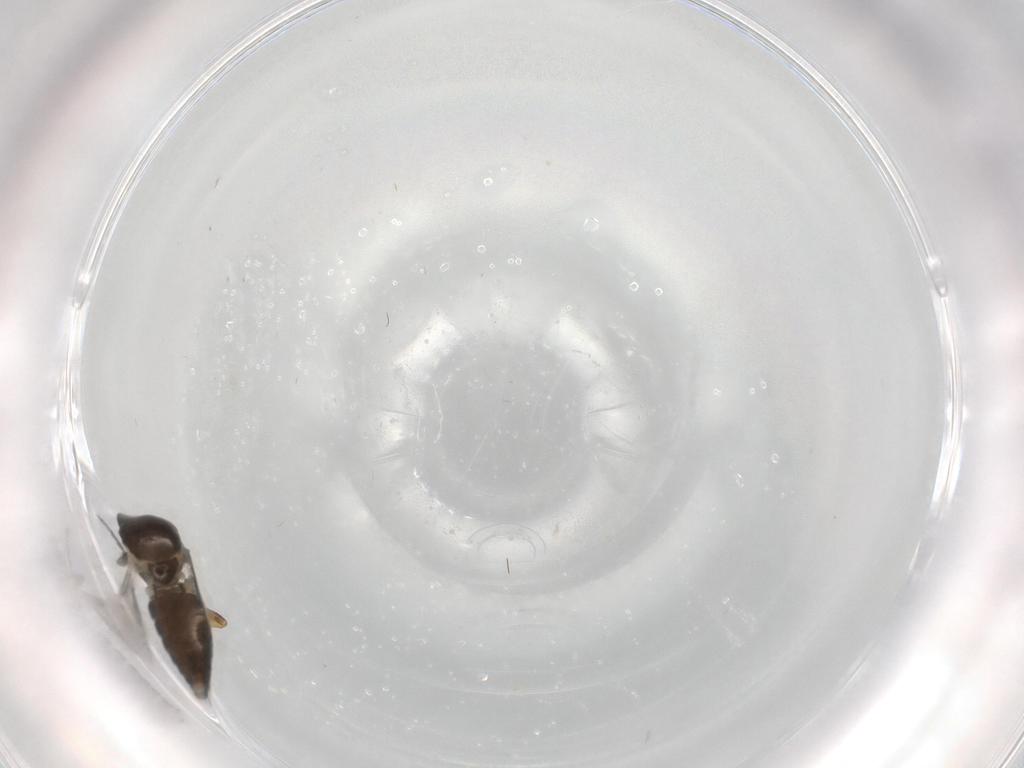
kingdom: Animalia
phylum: Arthropoda
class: Insecta
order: Diptera
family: Ceratopogonidae
